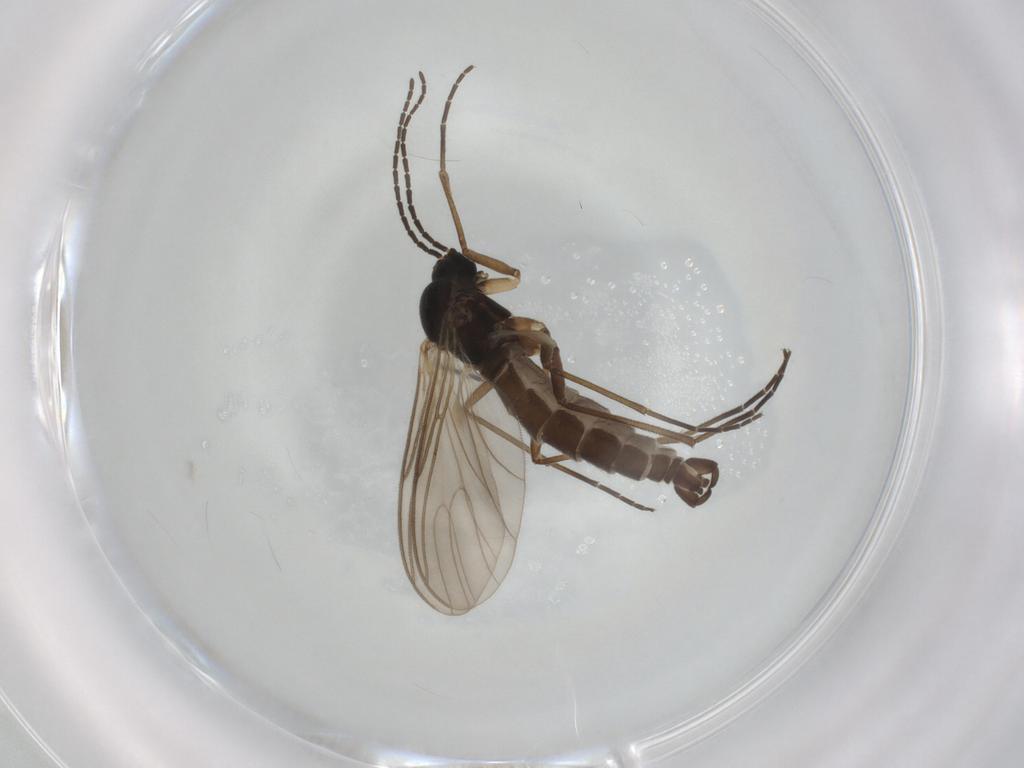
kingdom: Animalia
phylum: Arthropoda
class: Insecta
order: Diptera
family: Sciaridae
